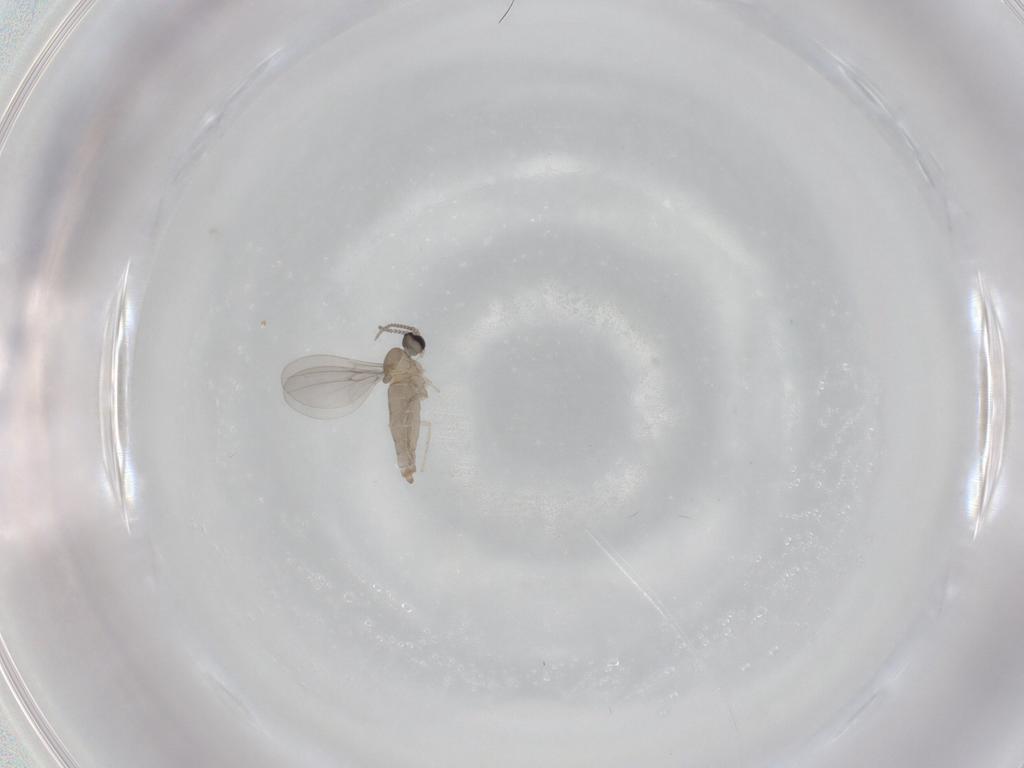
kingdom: Animalia
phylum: Arthropoda
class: Insecta
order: Diptera
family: Cecidomyiidae
